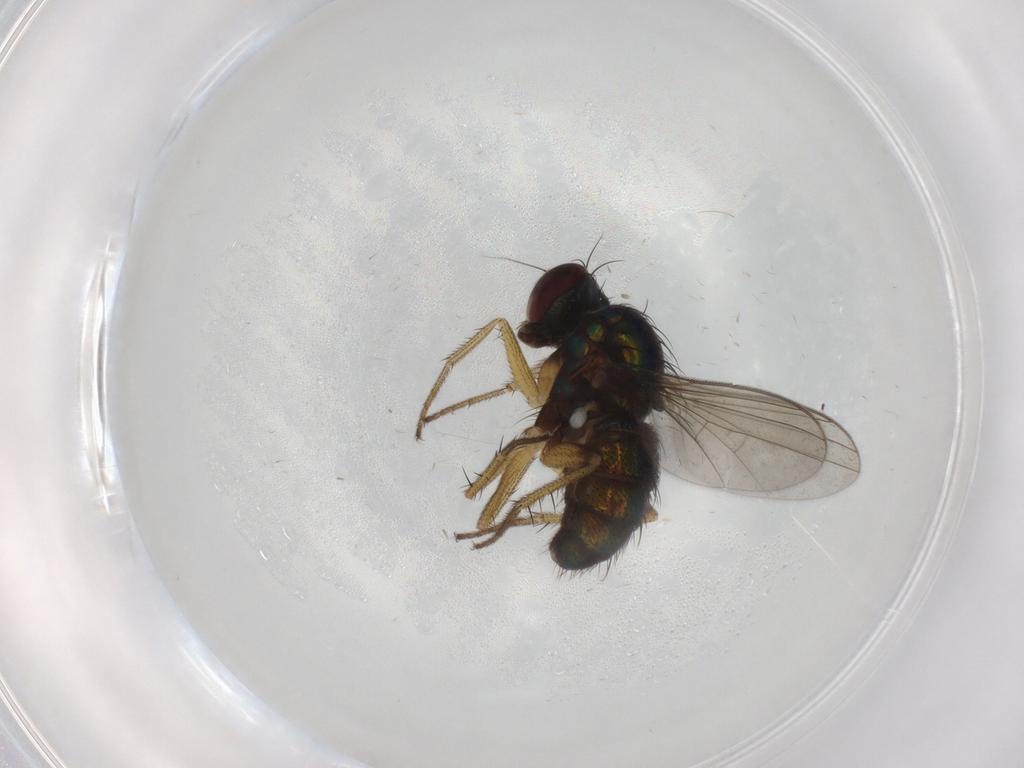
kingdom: Animalia
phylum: Arthropoda
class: Insecta
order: Diptera
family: Dolichopodidae
